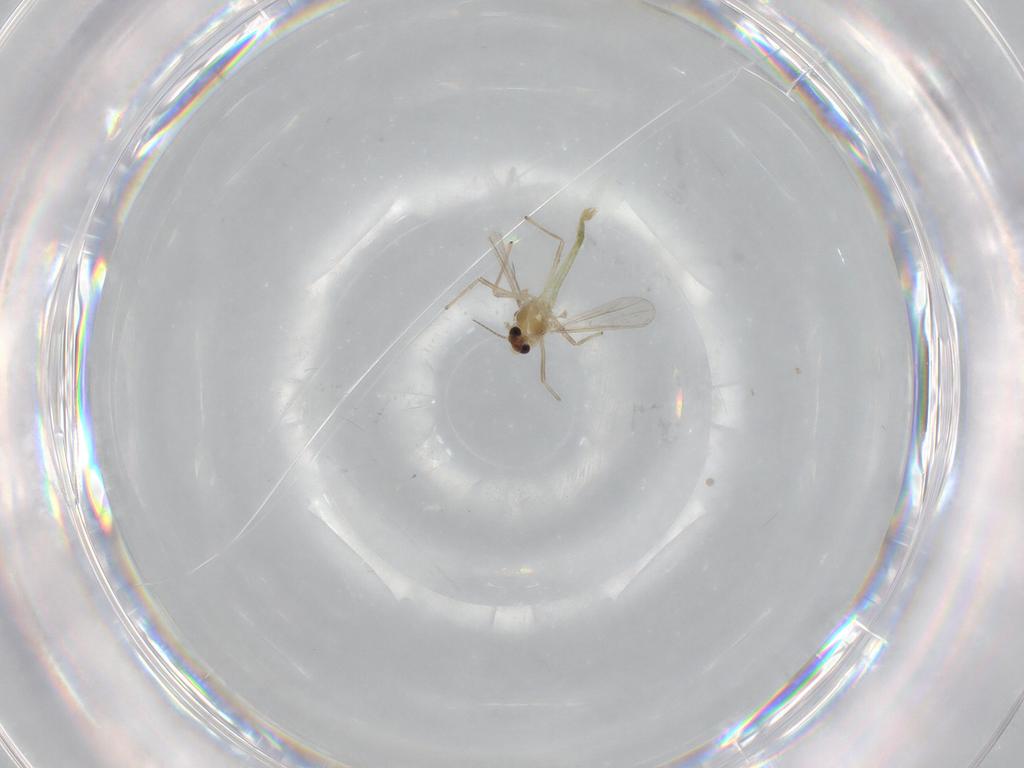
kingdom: Animalia
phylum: Arthropoda
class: Insecta
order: Diptera
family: Chironomidae
